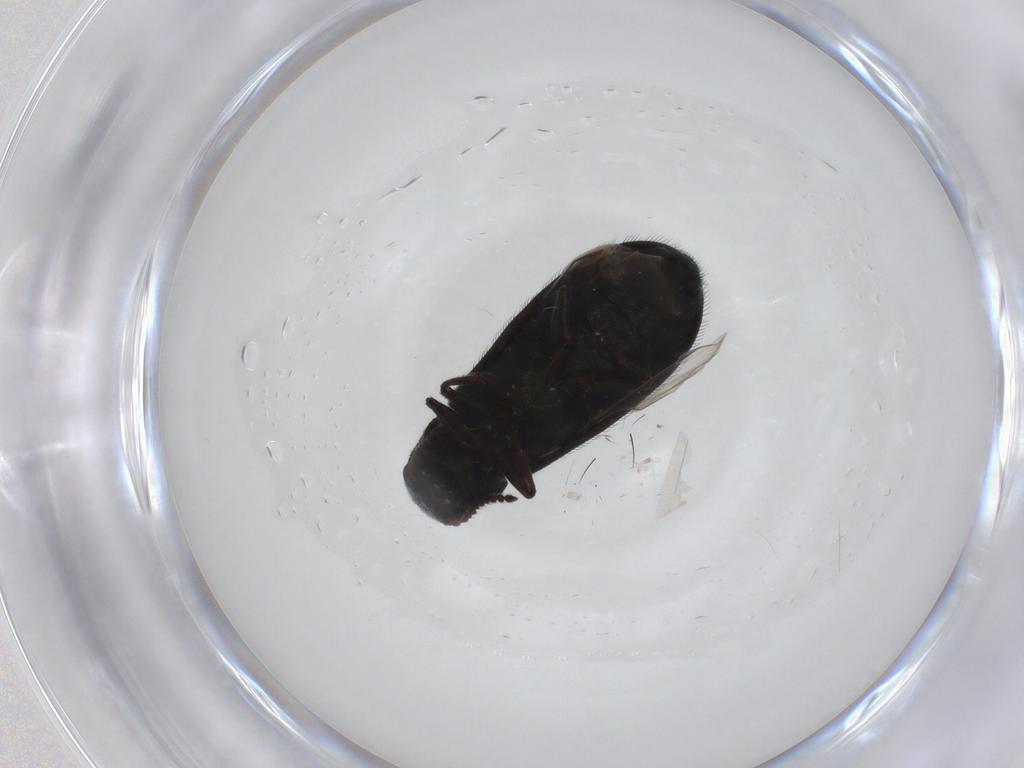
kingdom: Animalia
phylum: Arthropoda
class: Insecta
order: Coleoptera
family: Melyridae
